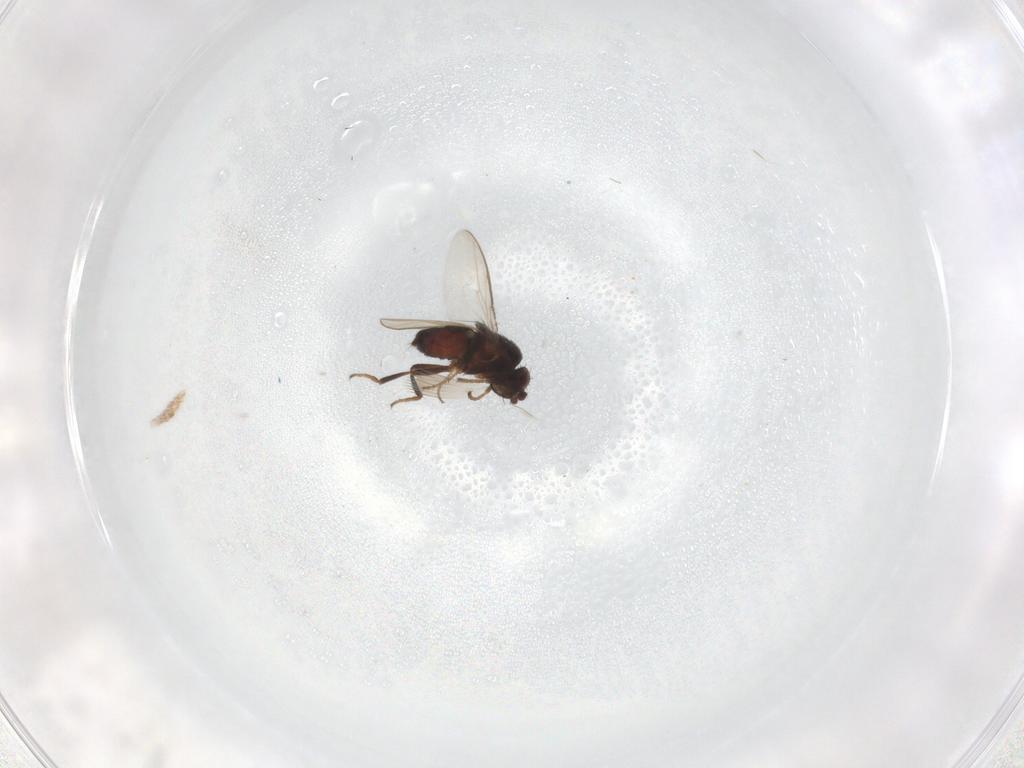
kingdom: Animalia
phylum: Arthropoda
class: Insecta
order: Diptera
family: Sphaeroceridae
